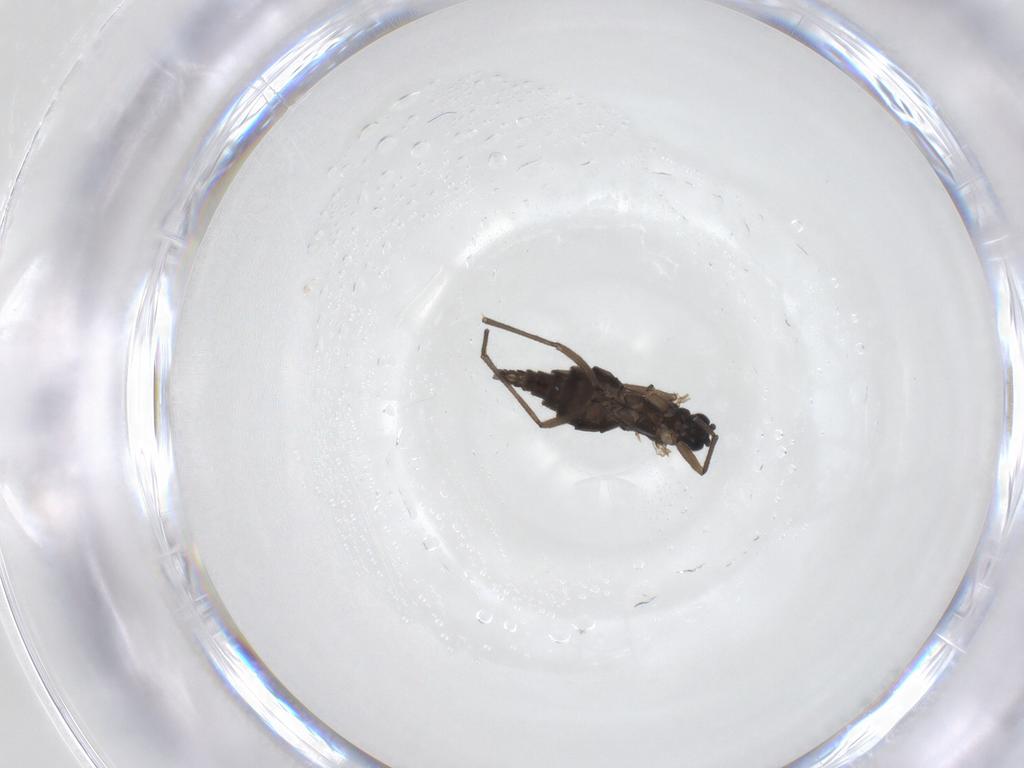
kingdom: Animalia
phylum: Arthropoda
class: Insecta
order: Diptera
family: Sciaridae
